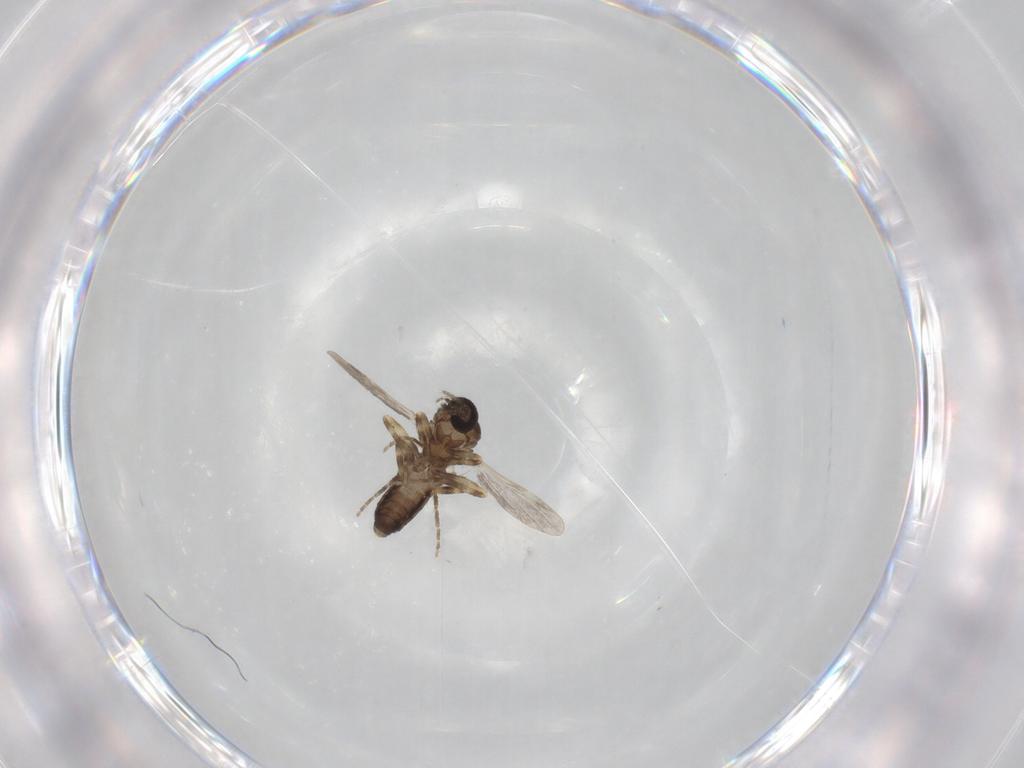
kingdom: Animalia
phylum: Arthropoda
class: Insecta
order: Diptera
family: Ceratopogonidae
